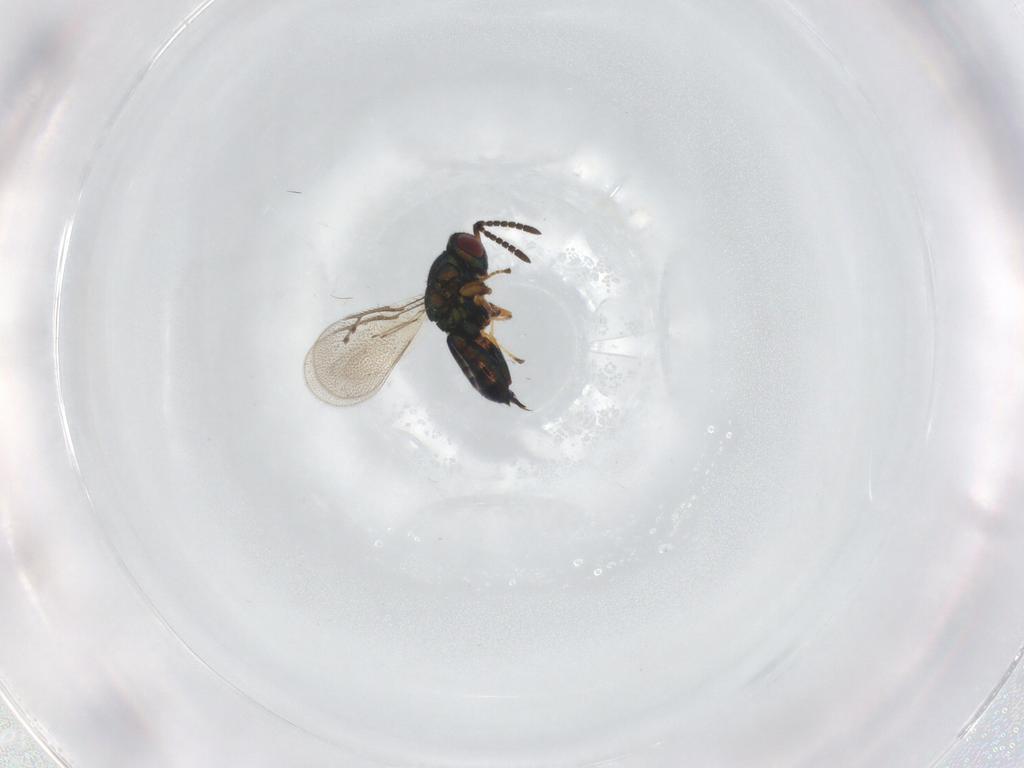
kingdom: Animalia
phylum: Arthropoda
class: Insecta
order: Hymenoptera
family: Pteromalidae
